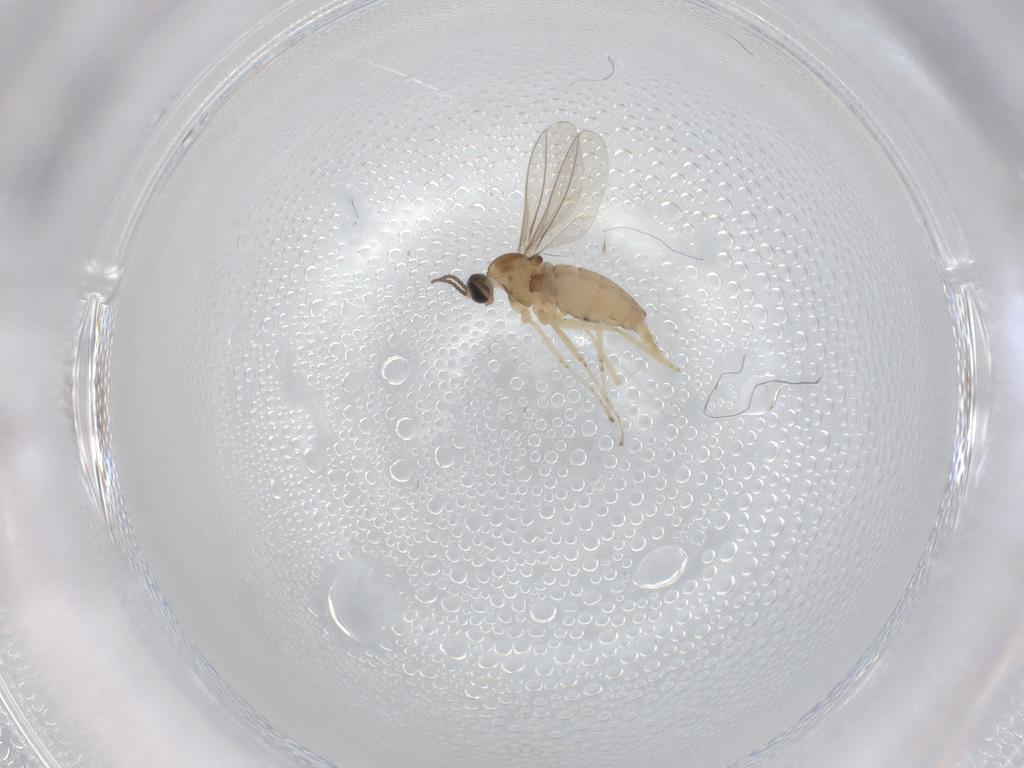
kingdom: Animalia
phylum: Arthropoda
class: Insecta
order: Diptera
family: Cecidomyiidae
